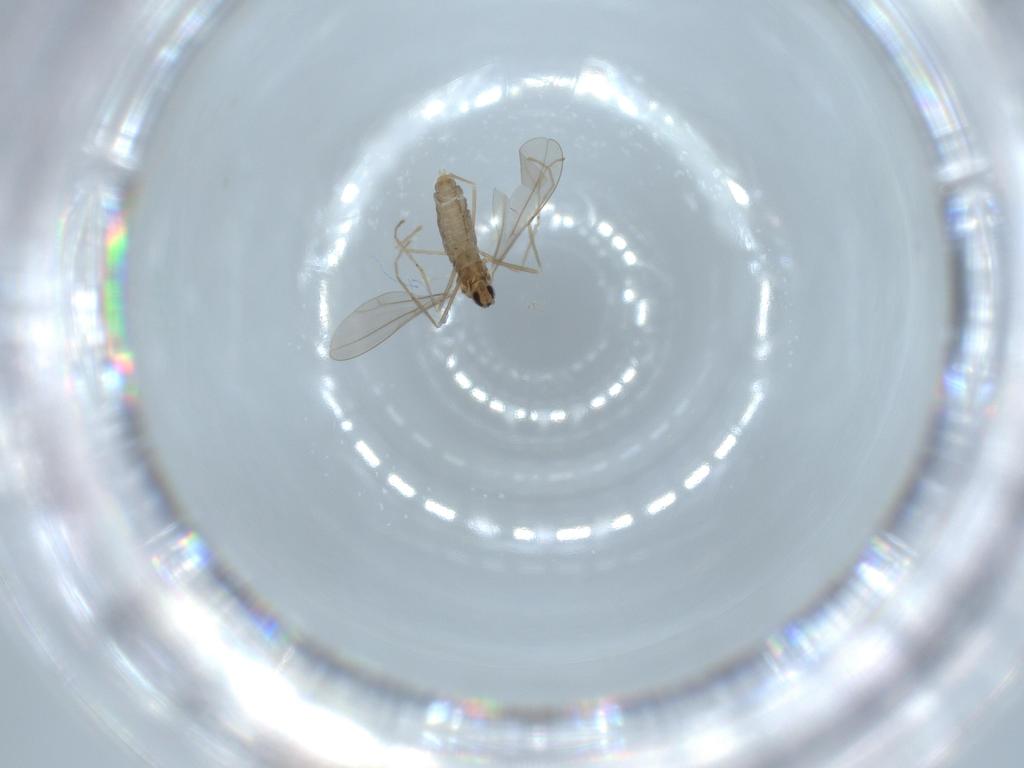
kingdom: Animalia
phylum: Arthropoda
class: Insecta
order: Diptera
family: Cecidomyiidae
